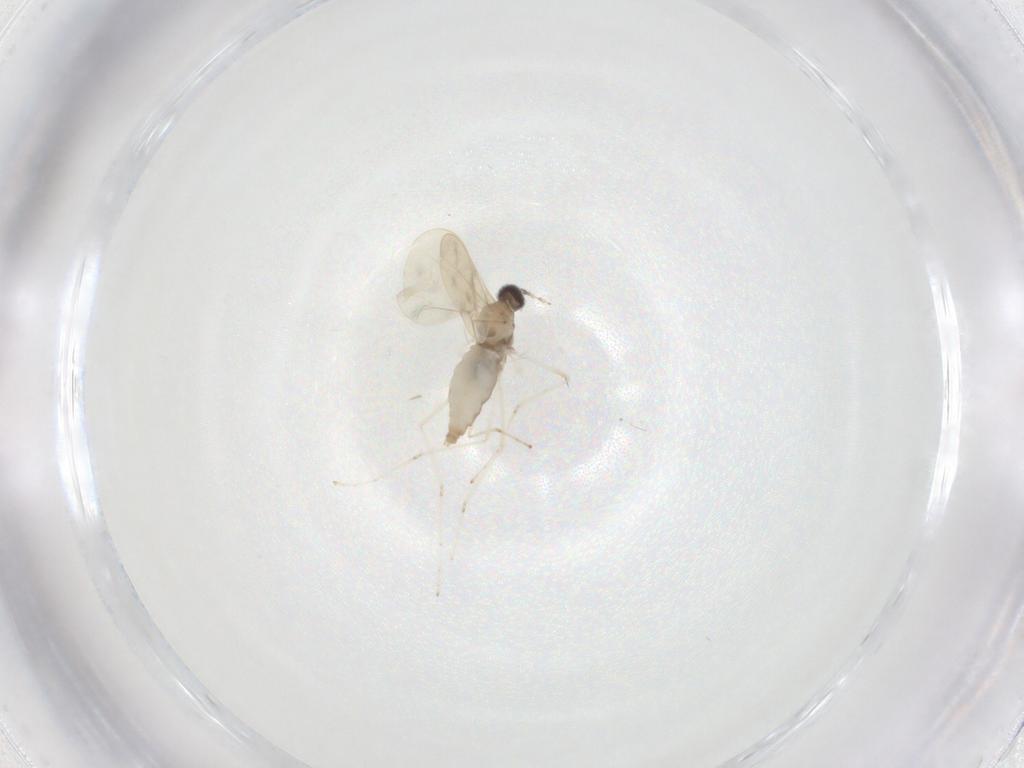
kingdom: Animalia
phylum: Arthropoda
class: Insecta
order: Diptera
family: Cecidomyiidae
